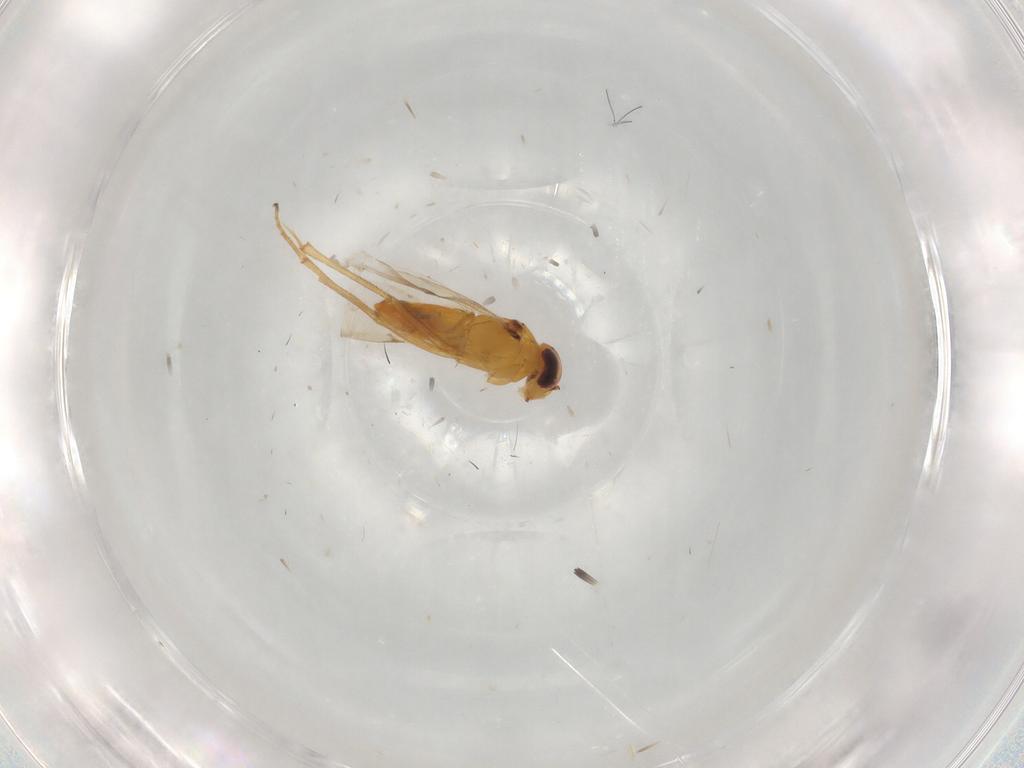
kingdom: Animalia
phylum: Arthropoda
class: Insecta
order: Diptera
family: Muscidae
